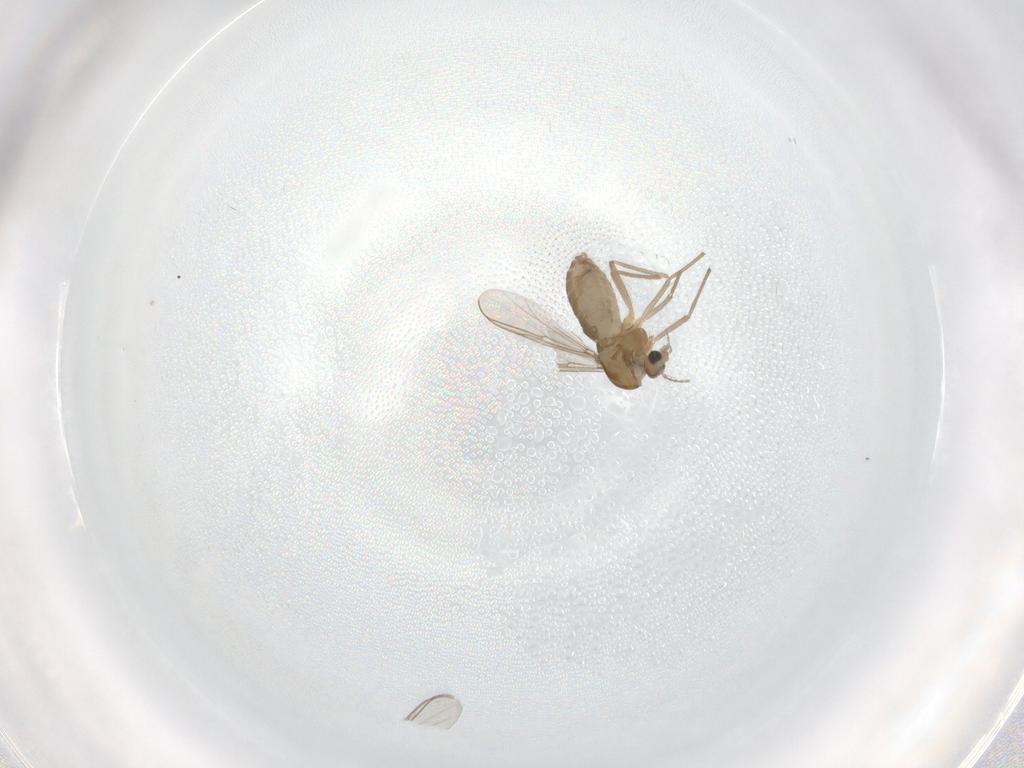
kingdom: Animalia
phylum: Arthropoda
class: Insecta
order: Diptera
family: Chironomidae
